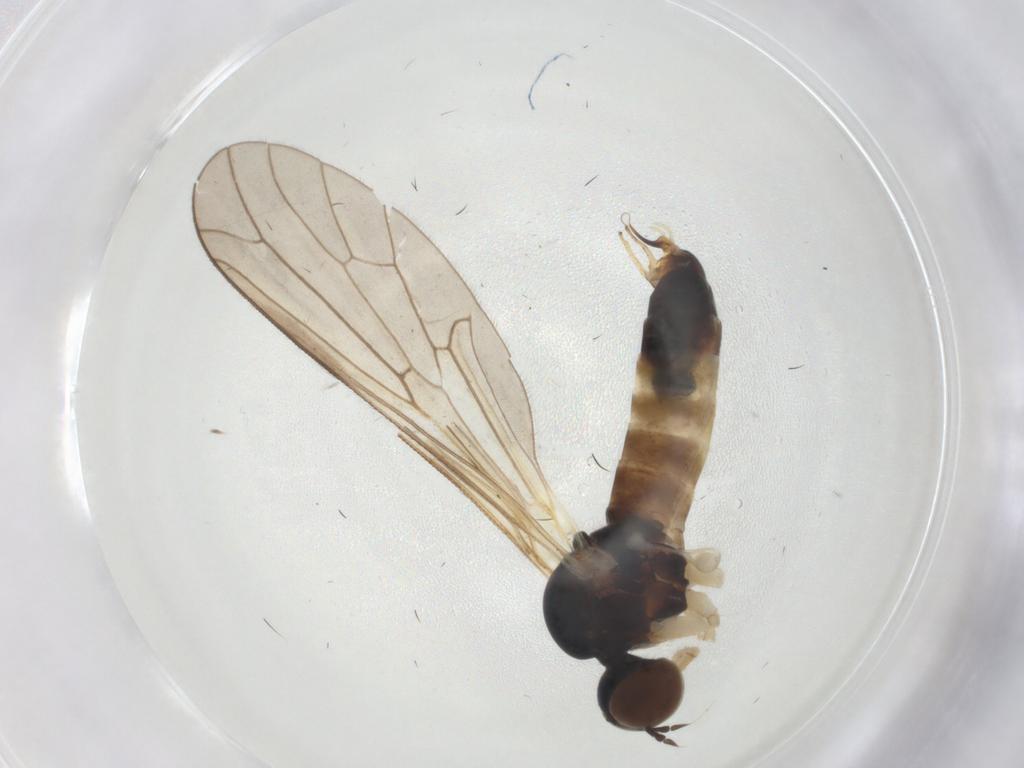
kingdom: Animalia
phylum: Arthropoda
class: Insecta
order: Diptera
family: Brachystomatidae
